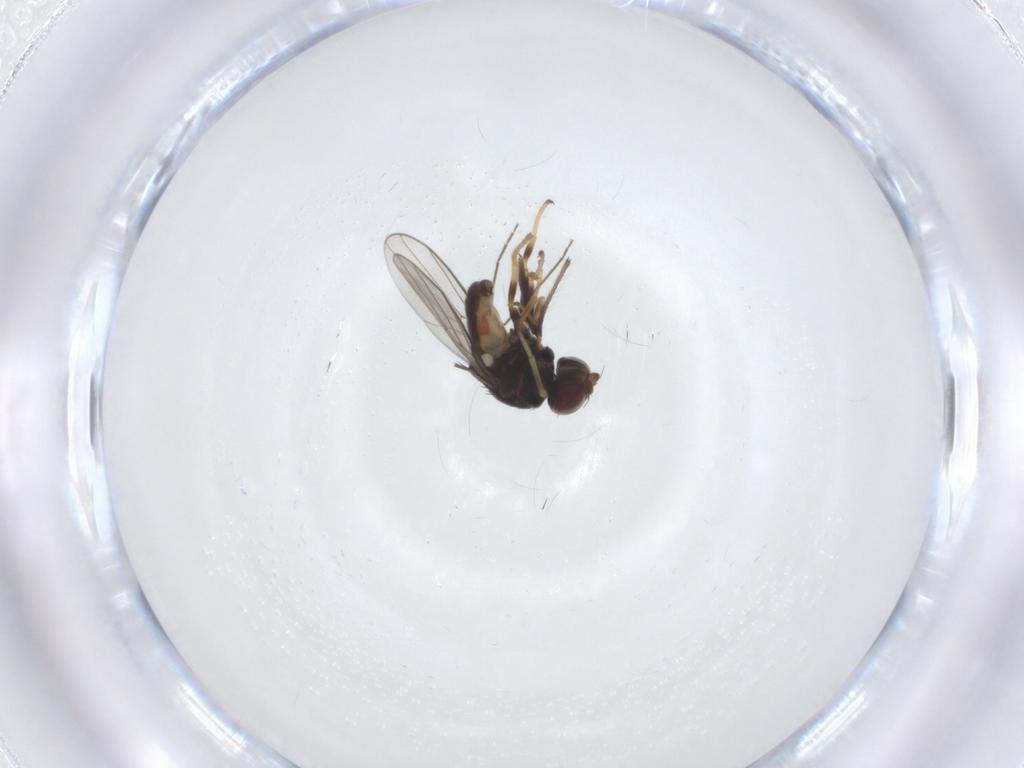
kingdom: Animalia
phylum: Arthropoda
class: Insecta
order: Diptera
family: Chloropidae
